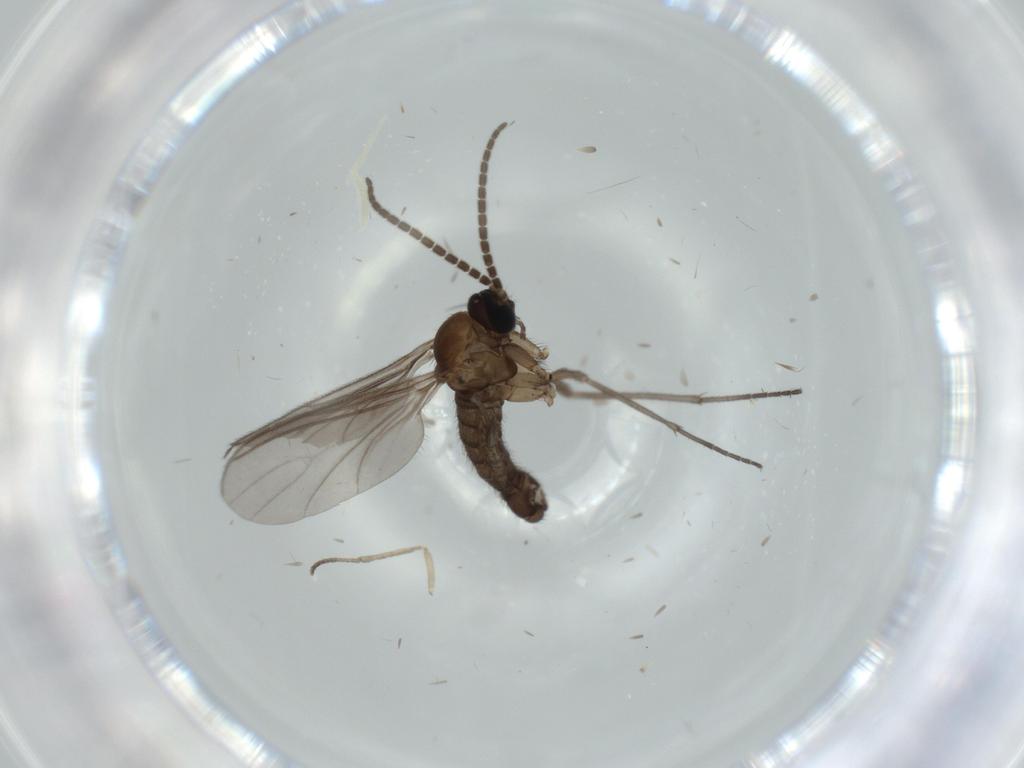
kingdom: Animalia
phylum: Arthropoda
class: Insecta
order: Diptera
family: Sciaridae
